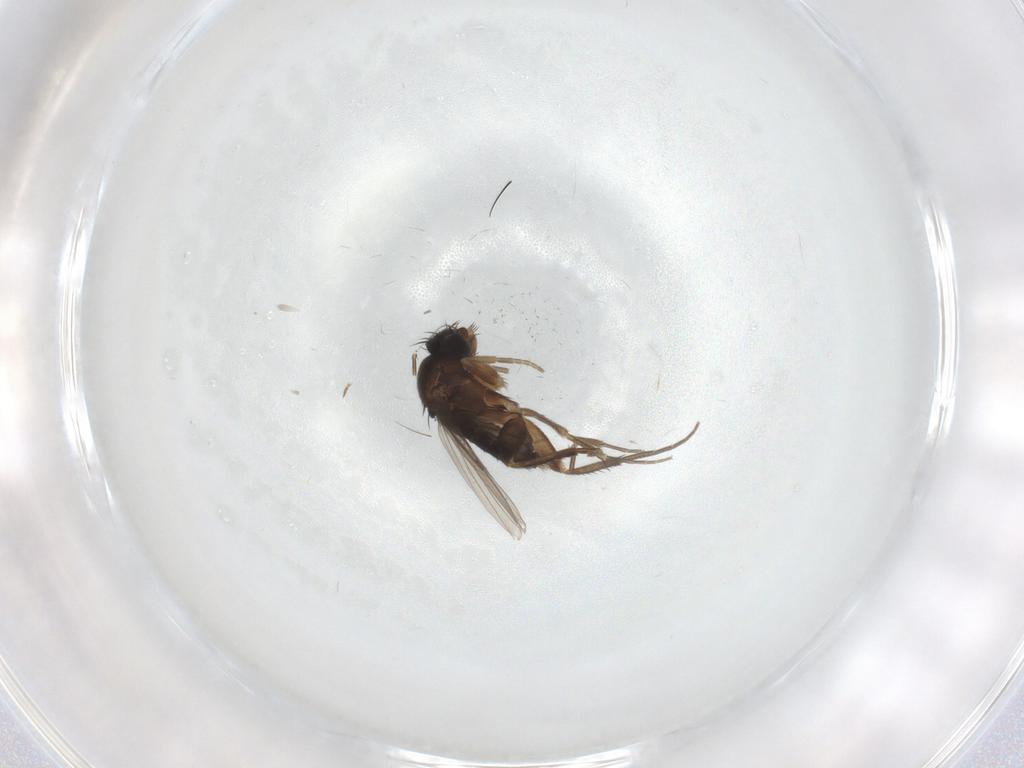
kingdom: Animalia
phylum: Arthropoda
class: Insecta
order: Diptera
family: Phoridae
